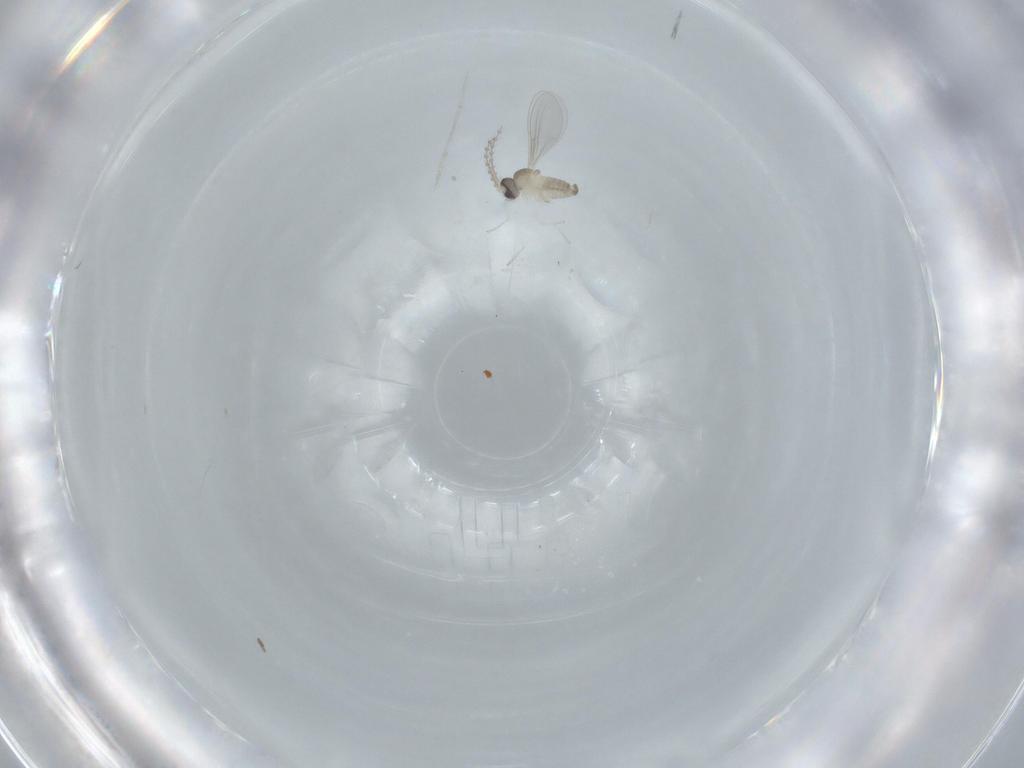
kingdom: Animalia
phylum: Arthropoda
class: Insecta
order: Diptera
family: Cecidomyiidae
